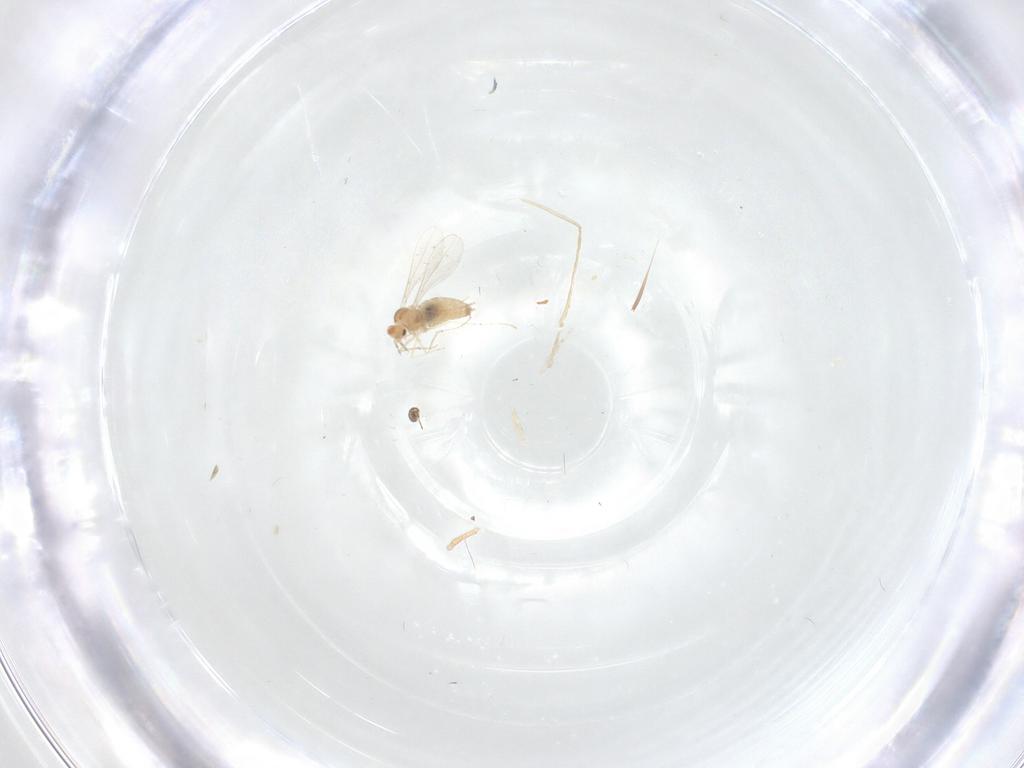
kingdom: Animalia
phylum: Arthropoda
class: Insecta
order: Diptera
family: Cecidomyiidae
